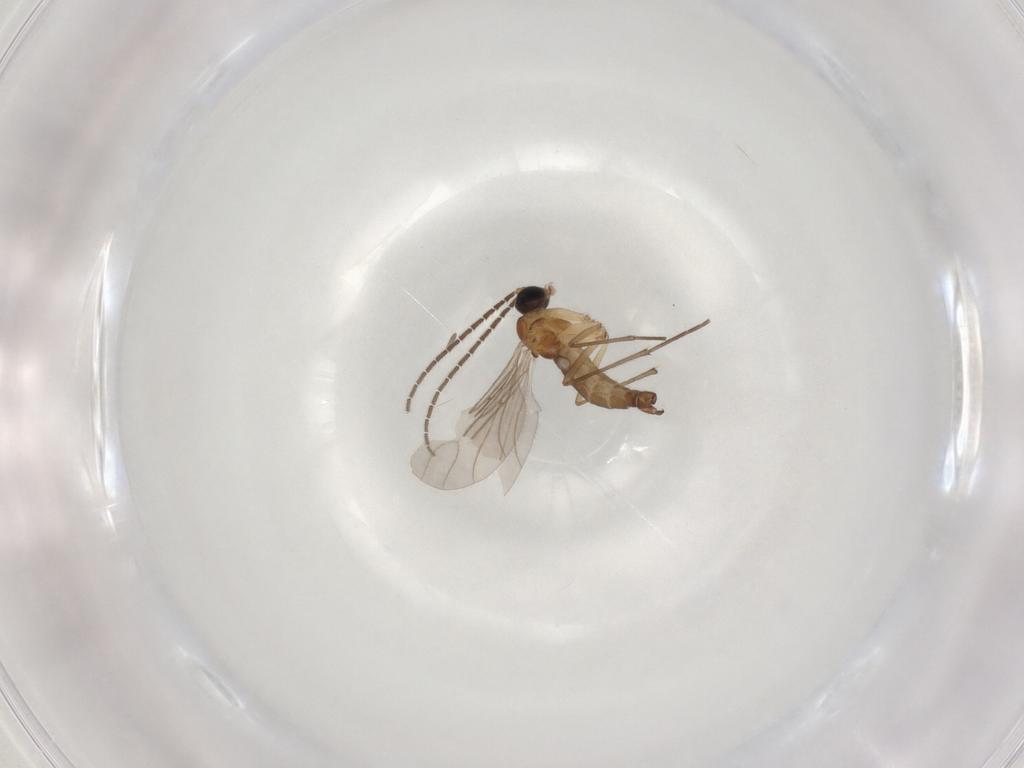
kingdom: Animalia
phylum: Arthropoda
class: Insecta
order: Diptera
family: Sciaridae
